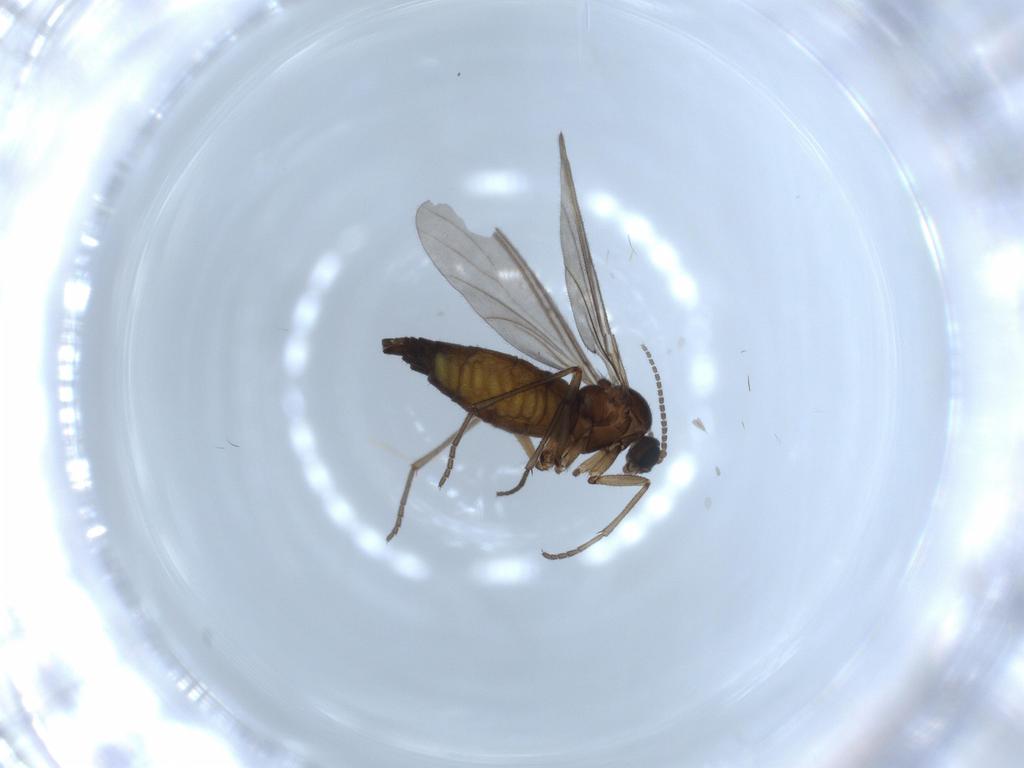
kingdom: Animalia
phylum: Arthropoda
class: Insecta
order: Diptera
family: Sciaridae
